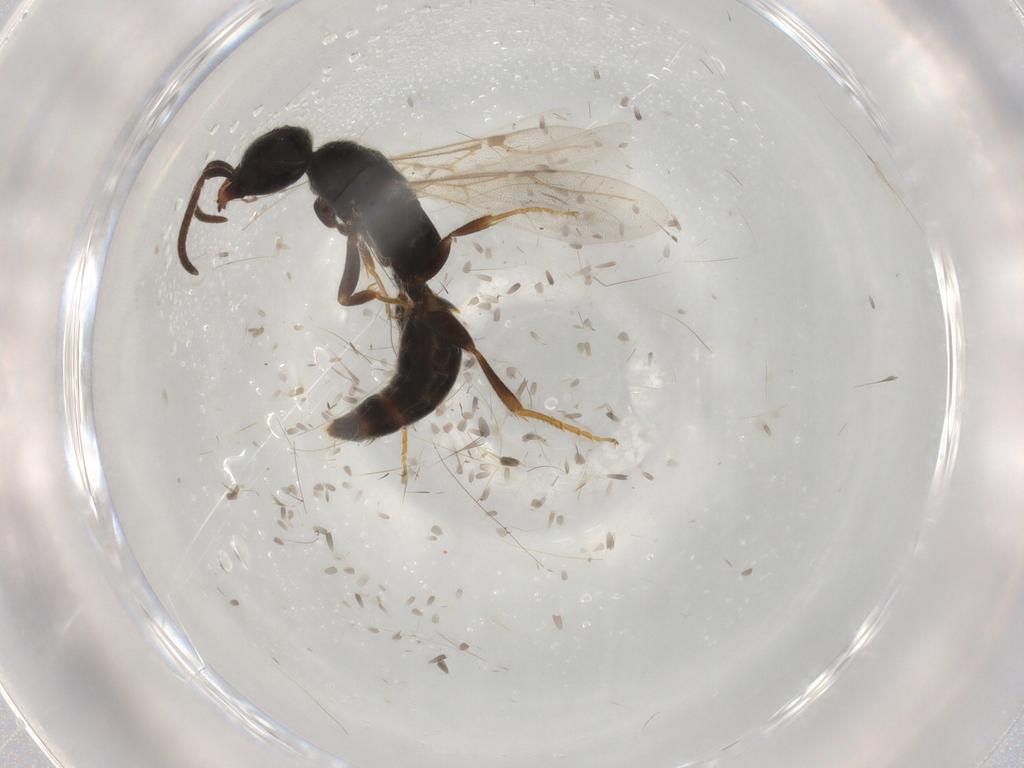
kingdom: Animalia
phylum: Arthropoda
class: Insecta
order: Hymenoptera
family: Bethylidae
